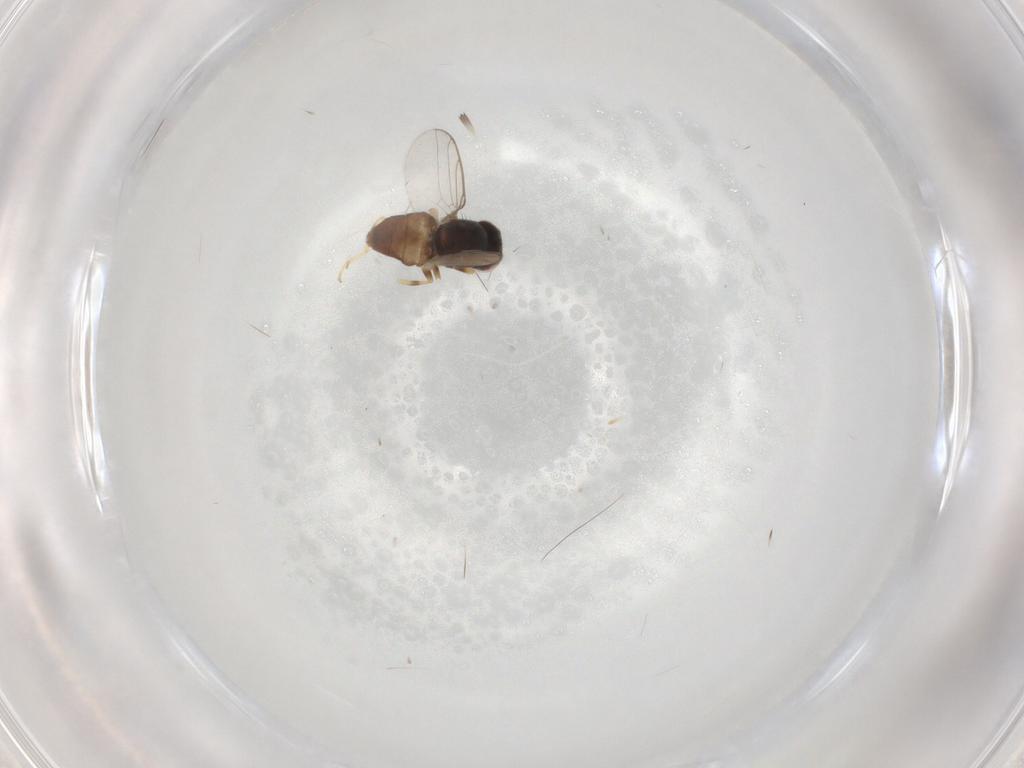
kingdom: Animalia
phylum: Arthropoda
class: Insecta
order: Diptera
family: Cecidomyiidae
